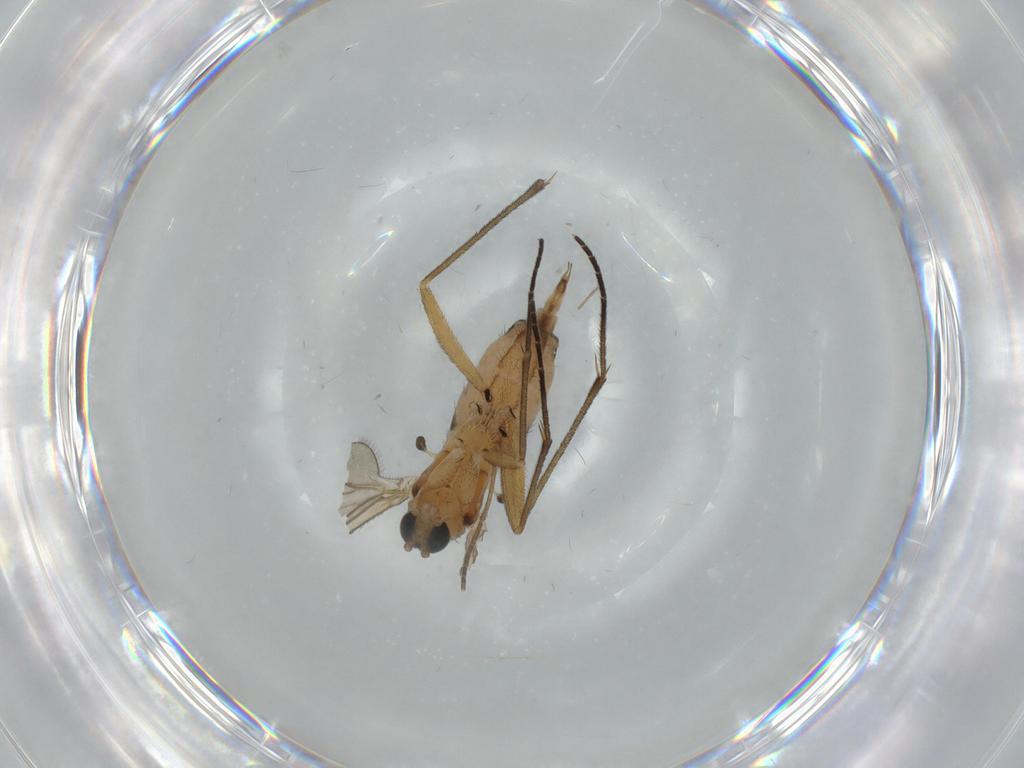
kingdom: Animalia
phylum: Arthropoda
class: Insecta
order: Diptera
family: Sciaridae
